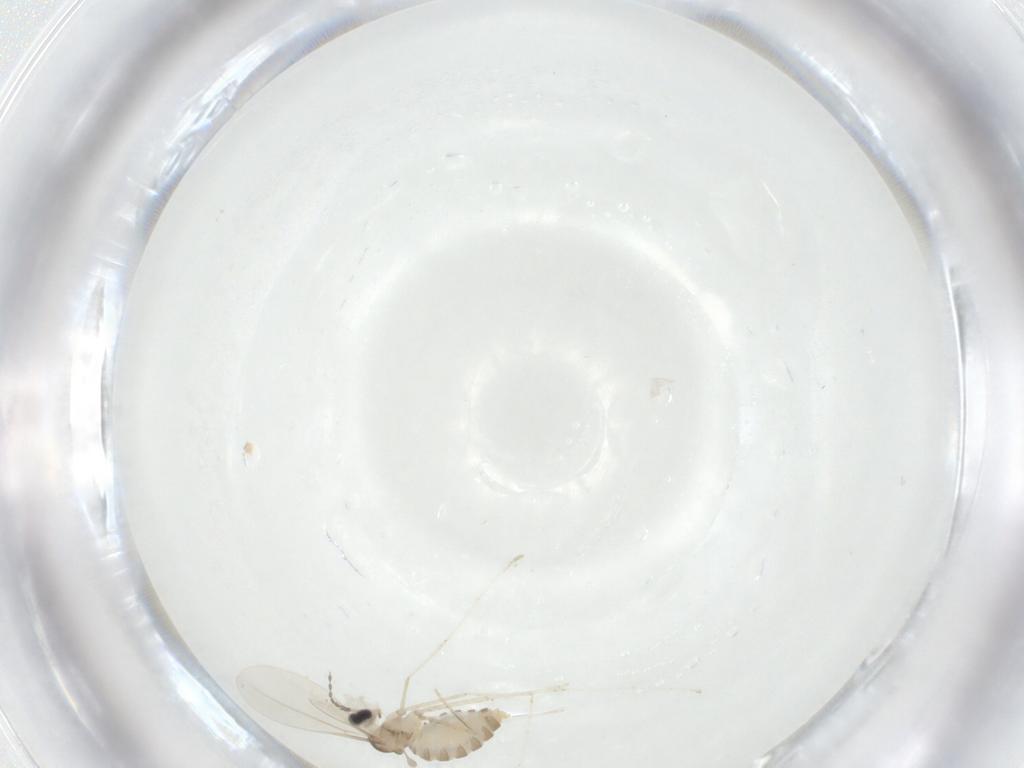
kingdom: Animalia
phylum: Arthropoda
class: Insecta
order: Diptera
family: Cecidomyiidae
